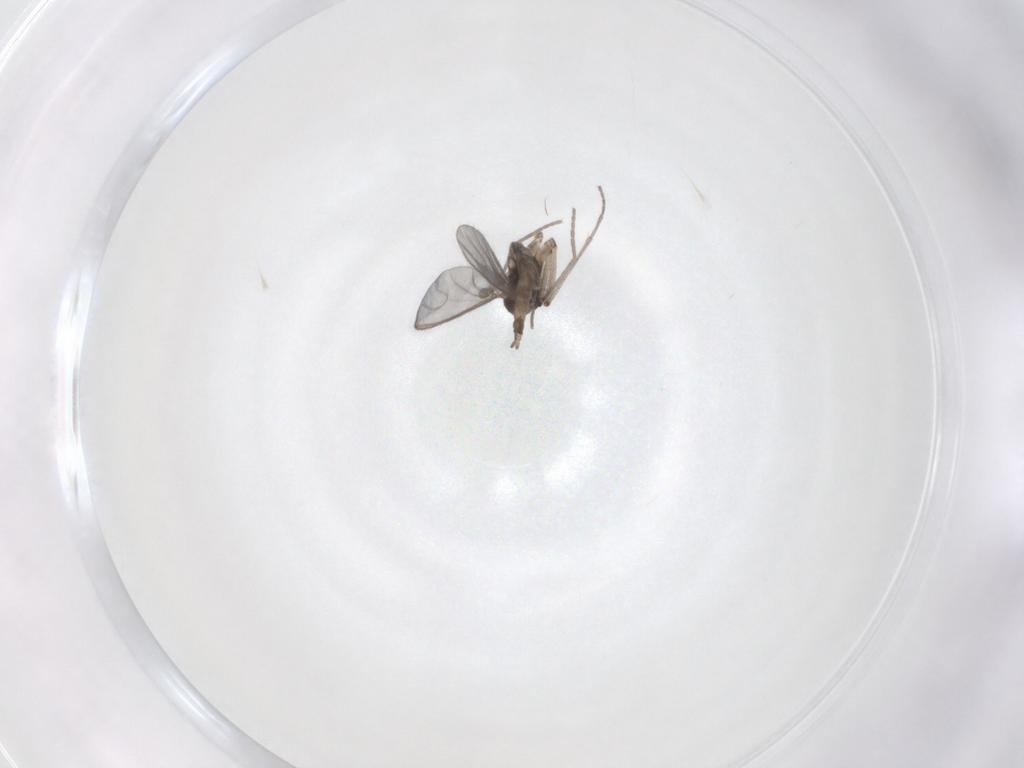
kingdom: Animalia
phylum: Arthropoda
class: Insecta
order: Diptera
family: Sciaridae
